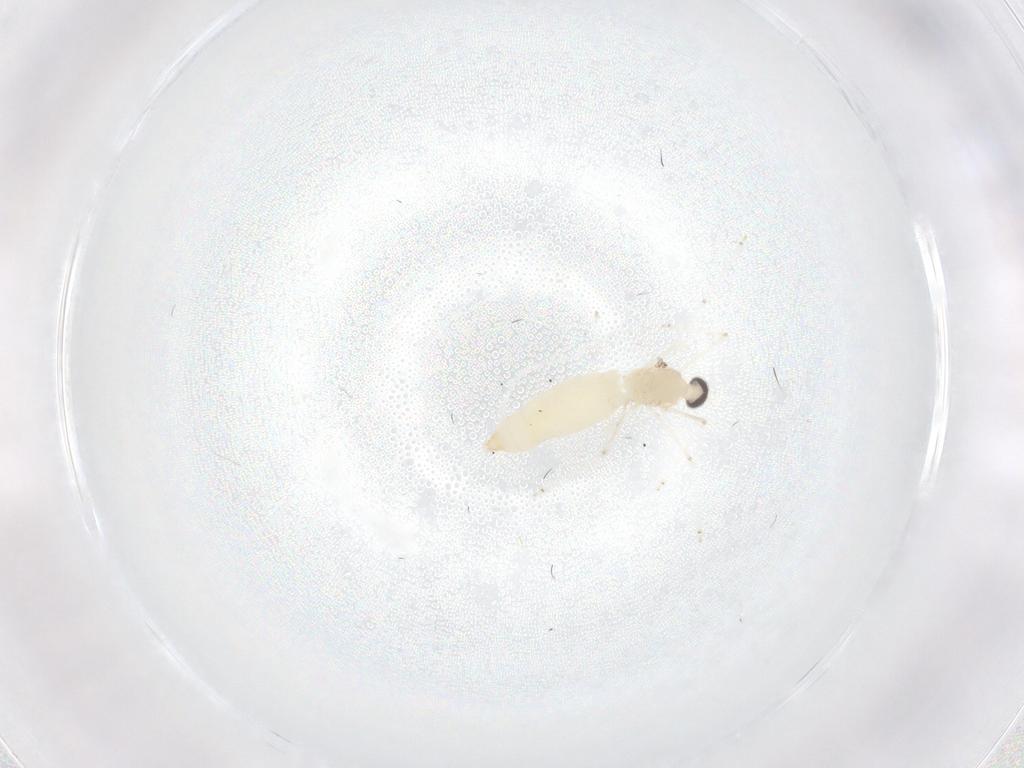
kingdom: Animalia
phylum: Arthropoda
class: Insecta
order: Diptera
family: Cecidomyiidae
